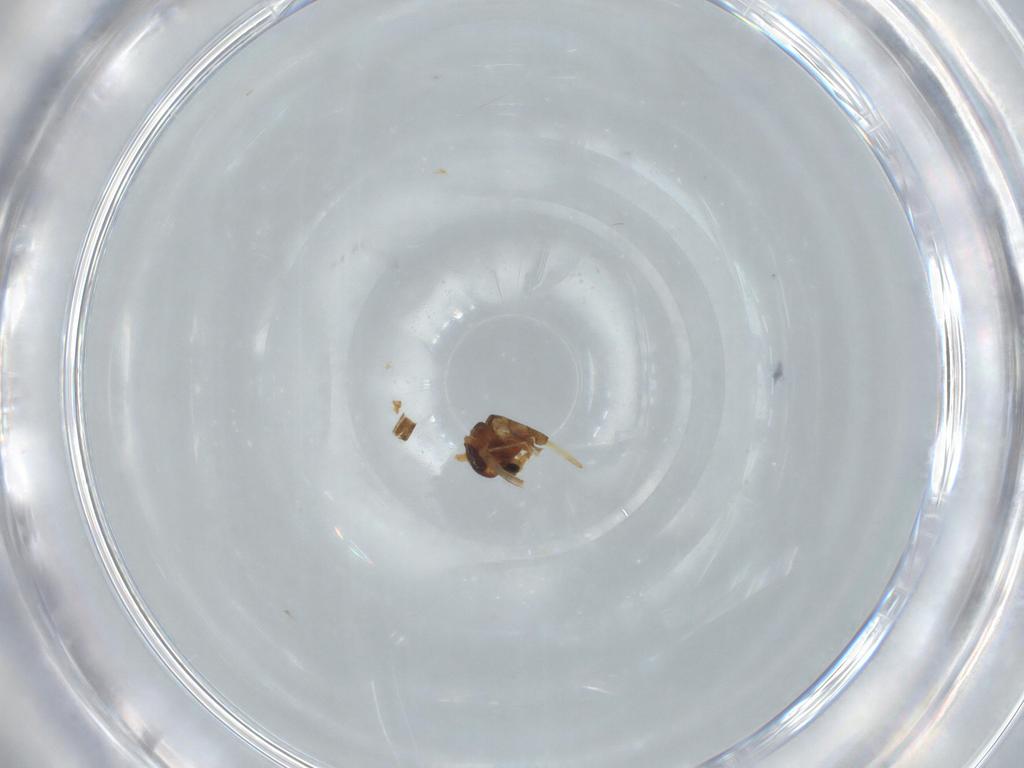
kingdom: Animalia
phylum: Arthropoda
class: Insecta
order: Diptera
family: Chironomidae
